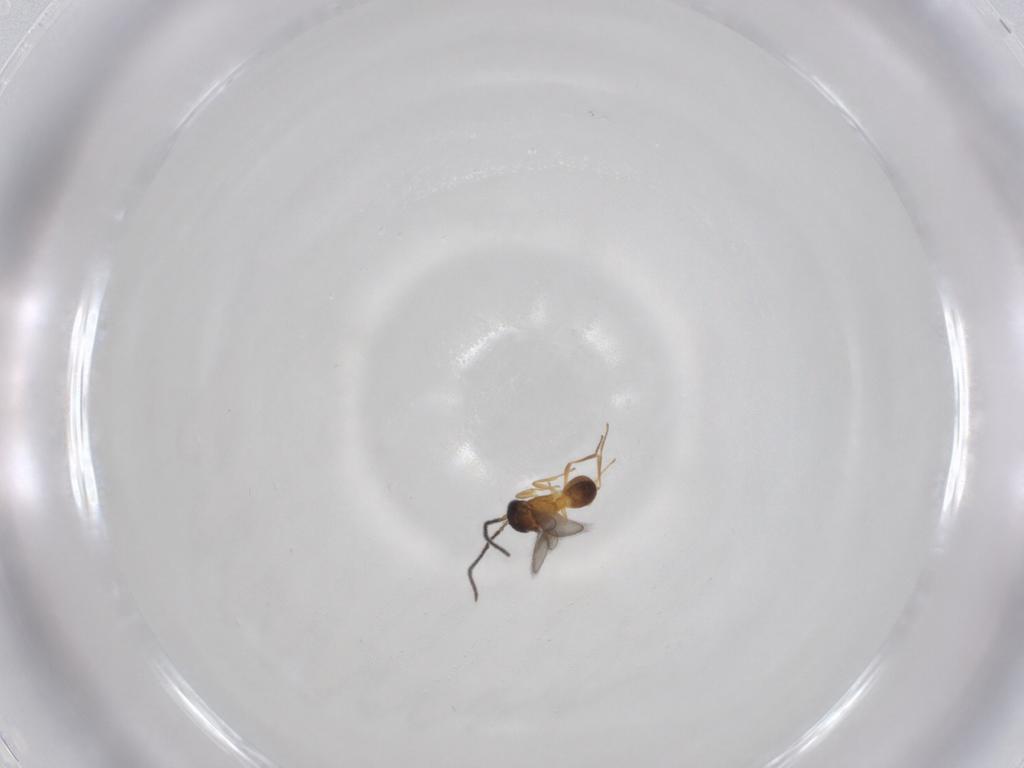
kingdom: Animalia
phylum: Arthropoda
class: Insecta
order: Hymenoptera
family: Scelionidae
